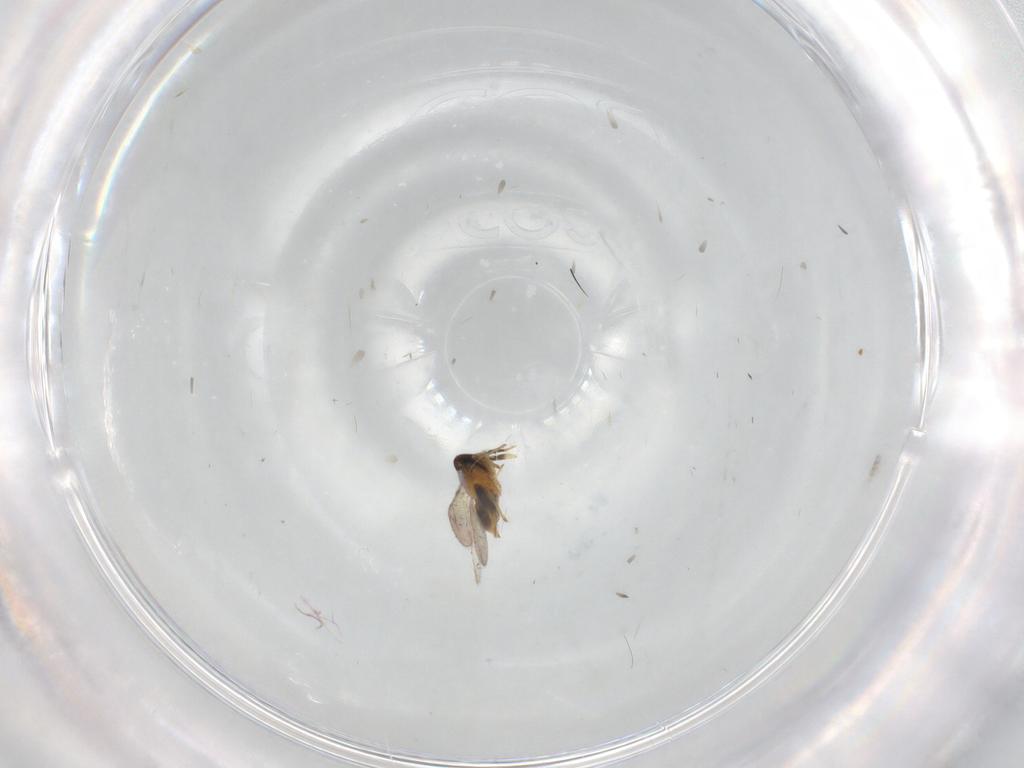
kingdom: Animalia
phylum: Arthropoda
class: Insecta
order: Hymenoptera
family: Aphelinidae
